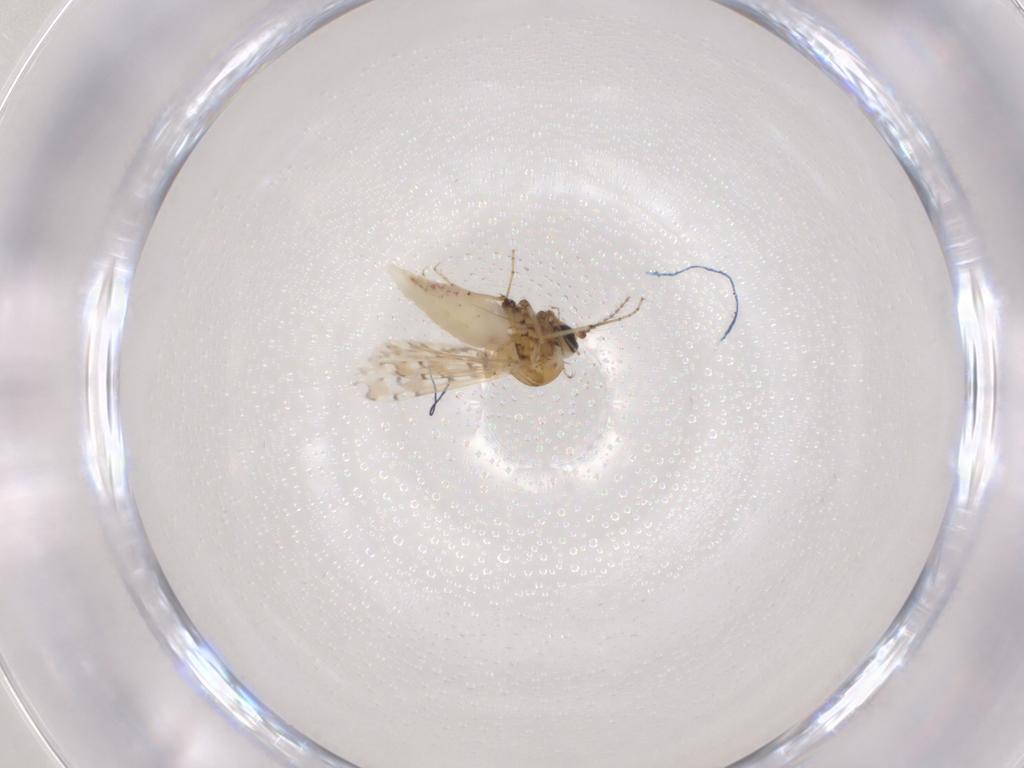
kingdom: Animalia
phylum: Arthropoda
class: Insecta
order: Diptera
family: Ceratopogonidae
